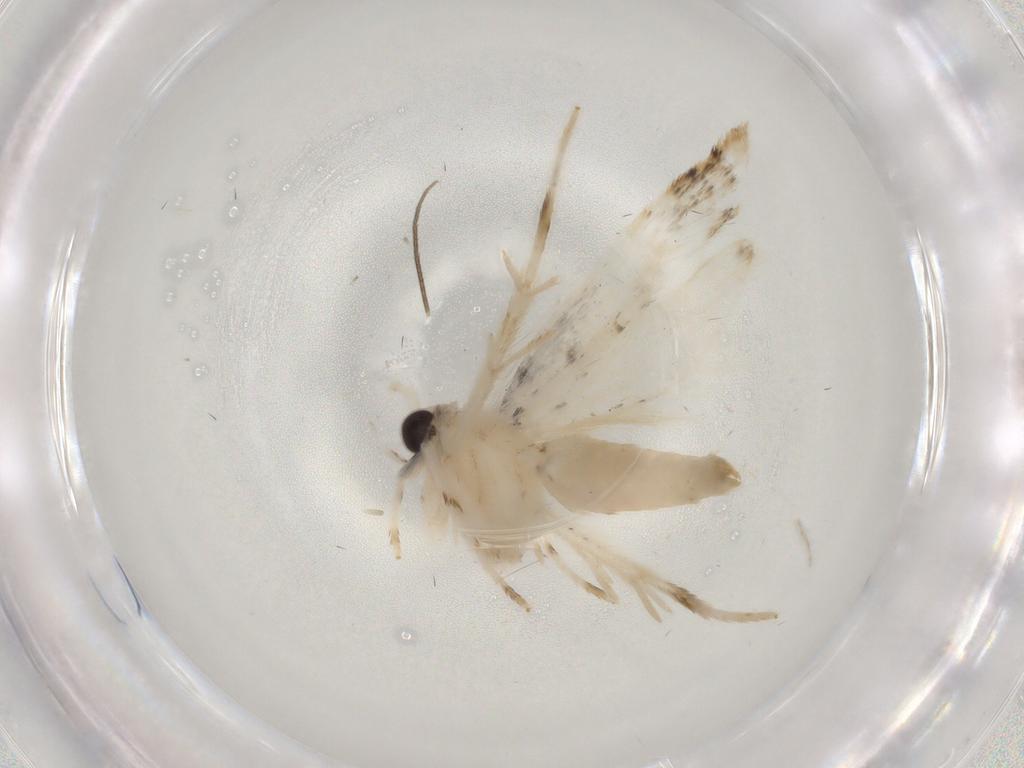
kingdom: Animalia
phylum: Arthropoda
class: Insecta
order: Lepidoptera
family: Tineidae
